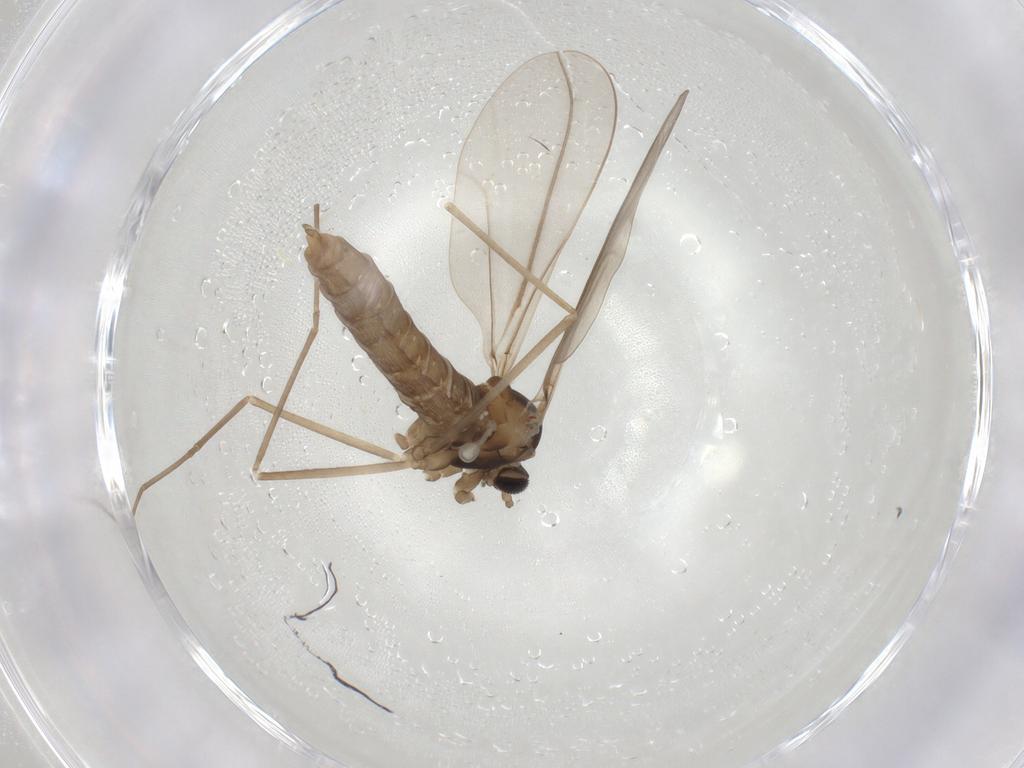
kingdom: Animalia
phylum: Arthropoda
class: Insecta
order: Diptera
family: Cecidomyiidae
